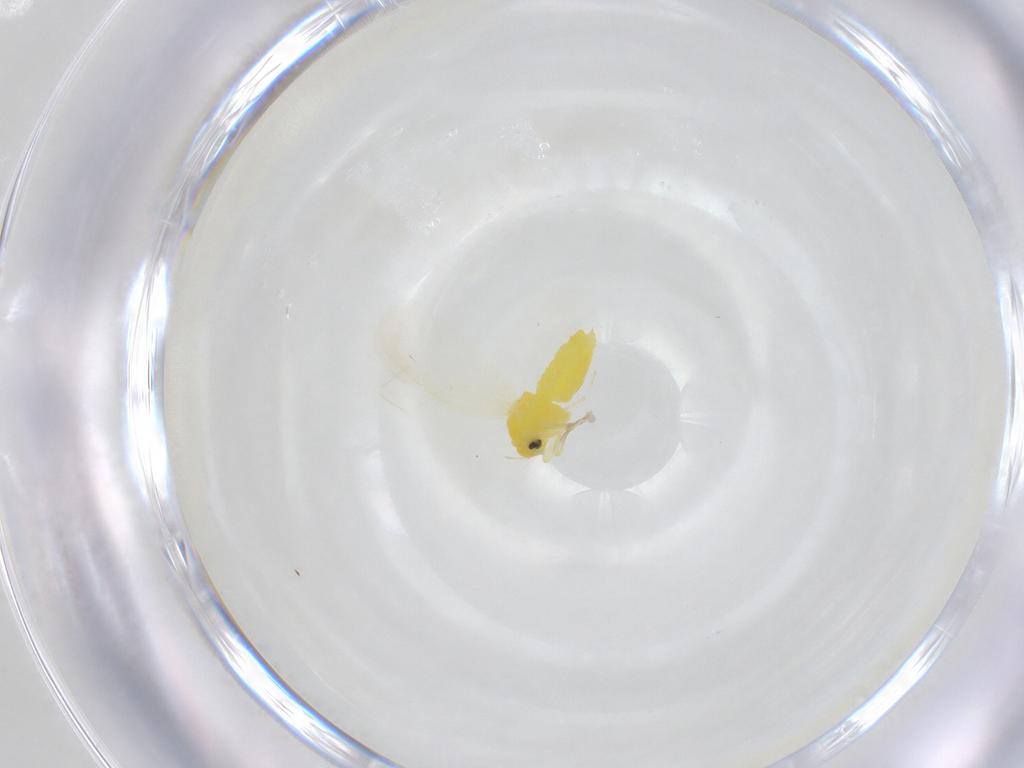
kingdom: Animalia
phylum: Arthropoda
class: Insecta
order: Hemiptera
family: Aleyrodidae
